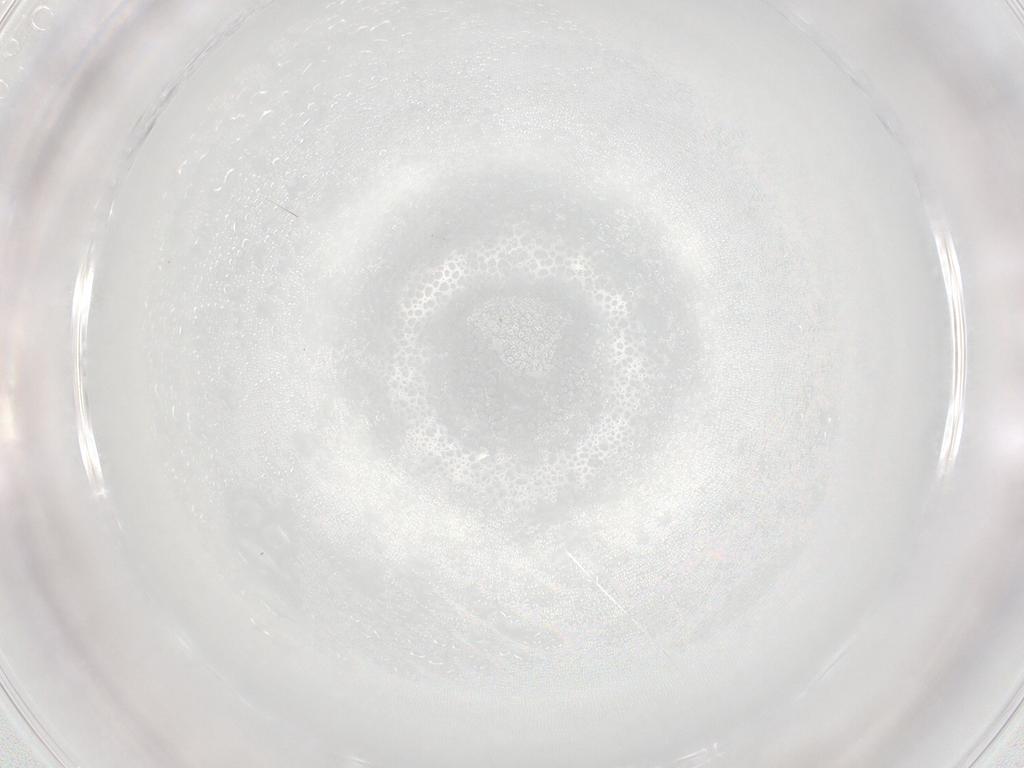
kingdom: Animalia
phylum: Arthropoda
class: Arachnida
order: Trombidiformes
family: Eupodidae
